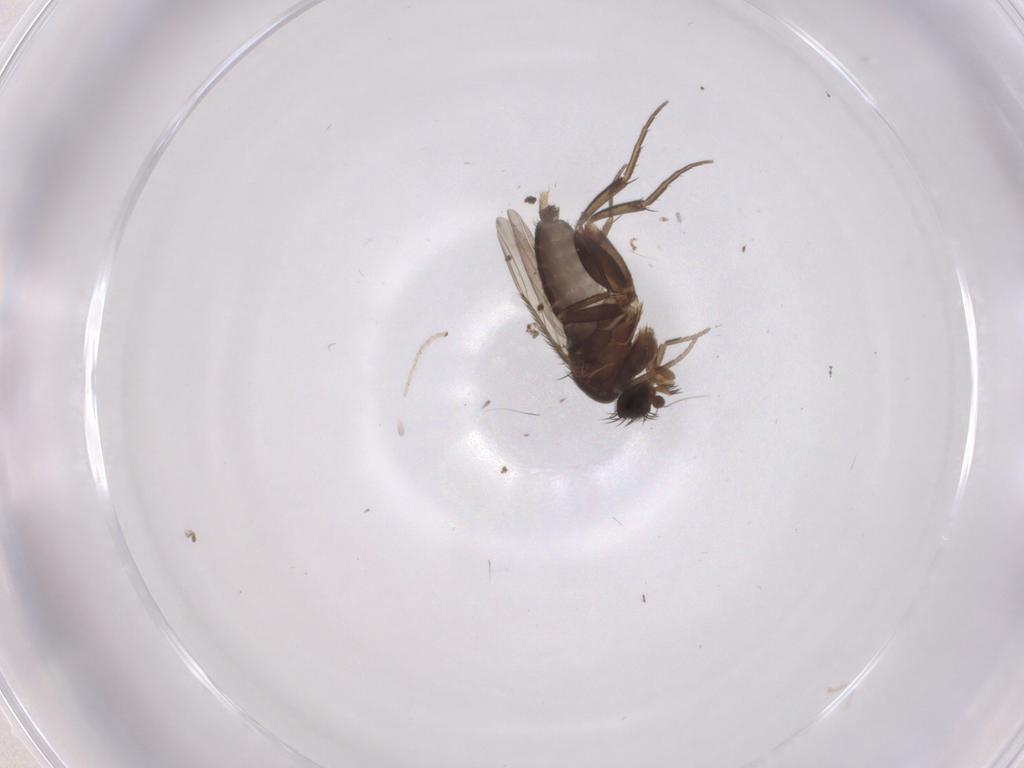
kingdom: Animalia
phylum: Arthropoda
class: Insecta
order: Diptera
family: Phoridae
